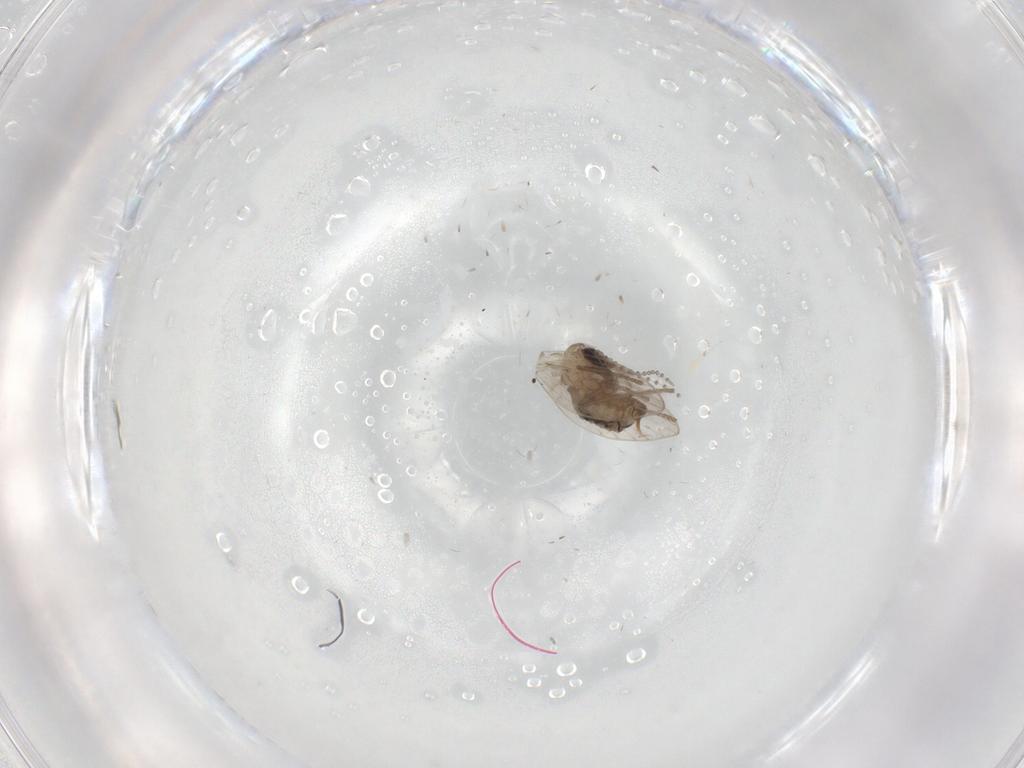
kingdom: Animalia
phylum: Arthropoda
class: Insecta
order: Diptera
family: Psychodidae
